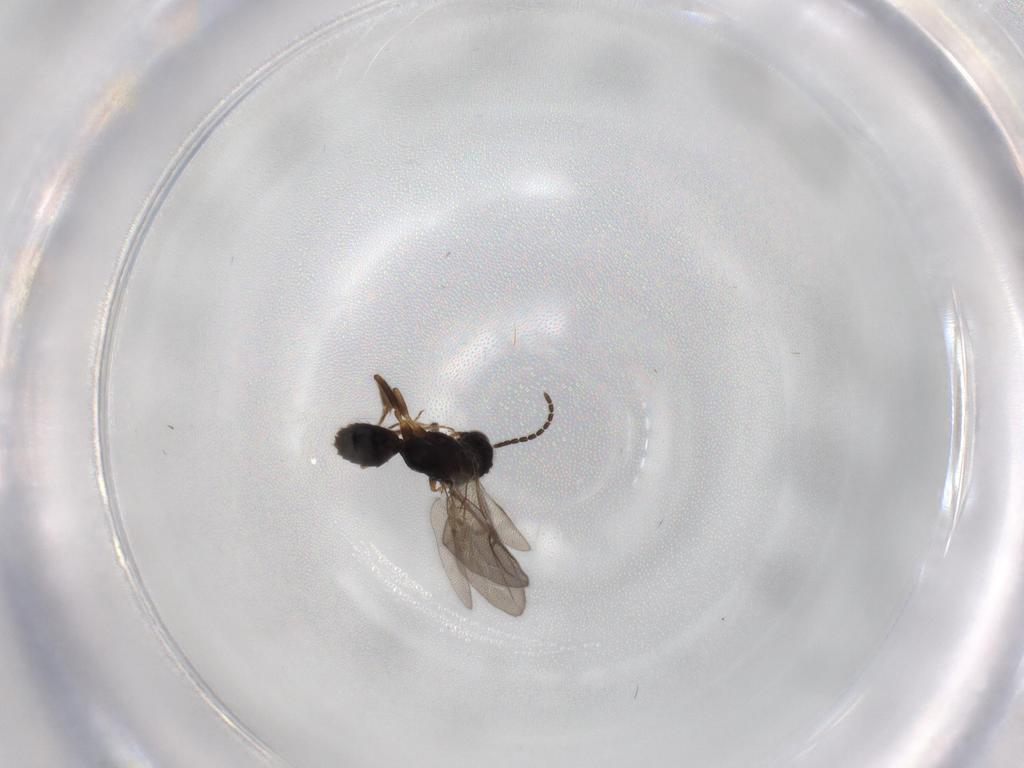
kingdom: Animalia
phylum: Arthropoda
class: Insecta
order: Hymenoptera
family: Bethylidae
